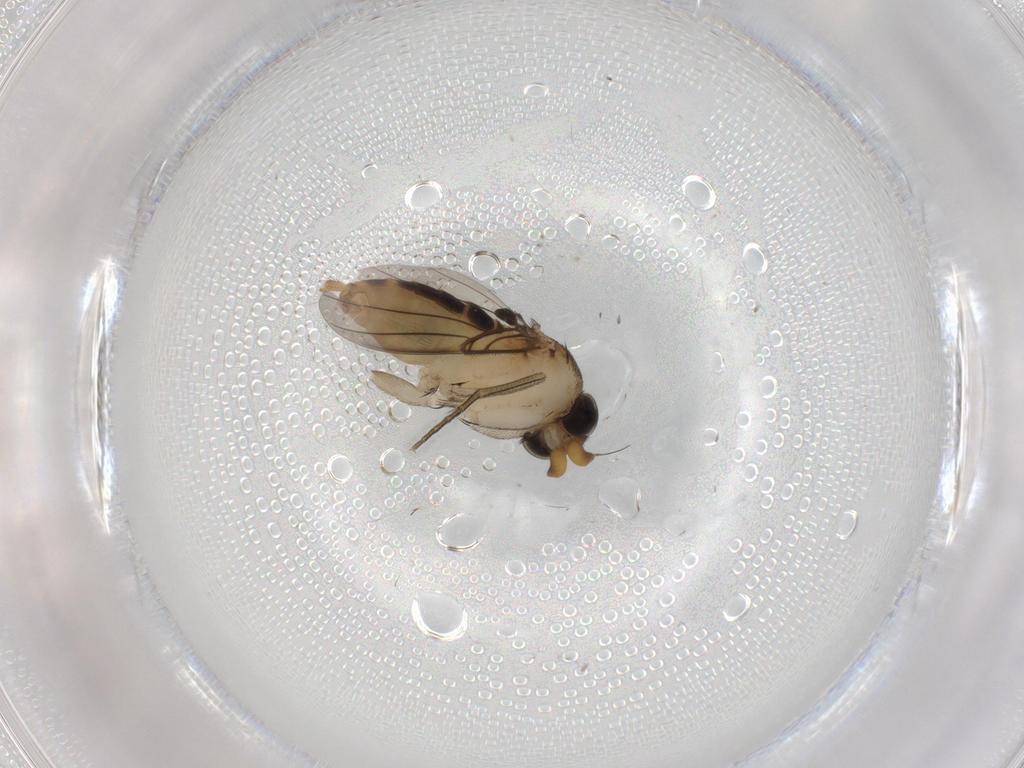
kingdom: Animalia
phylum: Arthropoda
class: Insecta
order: Diptera
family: Phoridae
